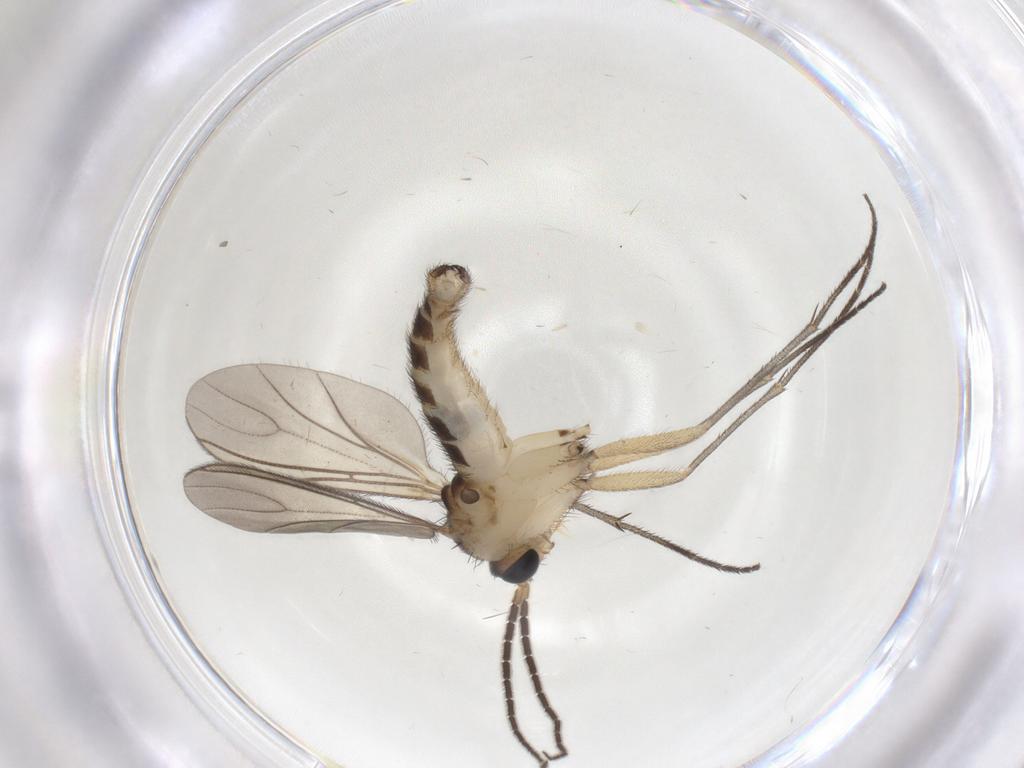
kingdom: Animalia
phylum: Arthropoda
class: Insecta
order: Diptera
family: Sciaridae
